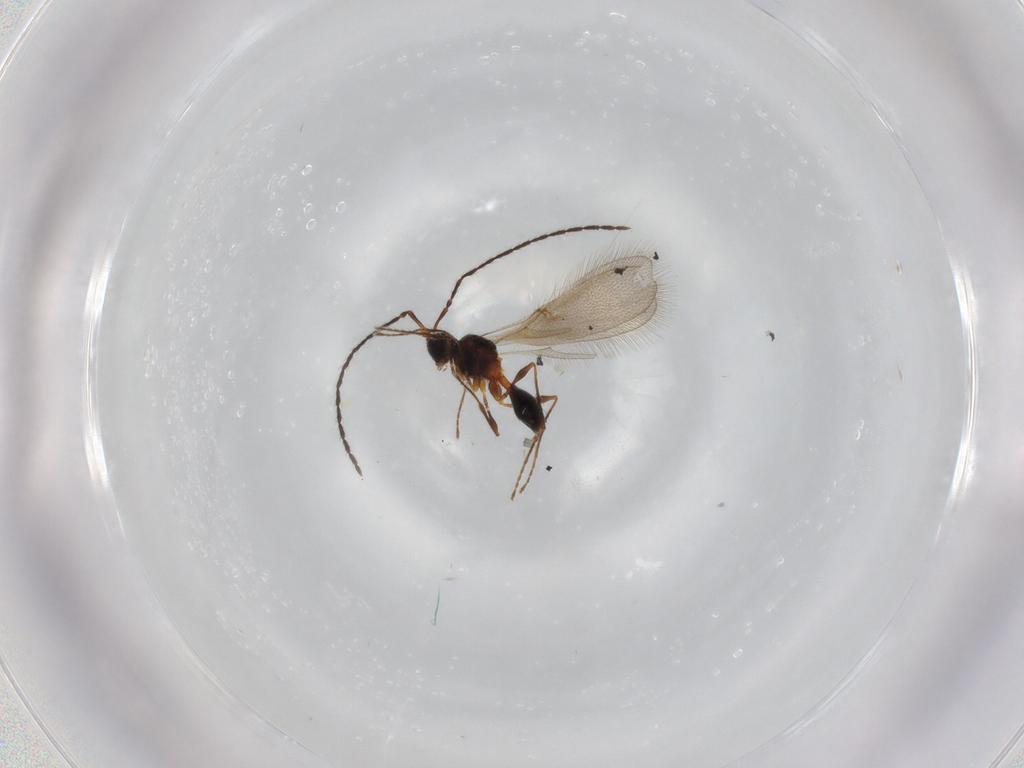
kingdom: Animalia
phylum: Arthropoda
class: Insecta
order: Hymenoptera
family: Diapriidae
